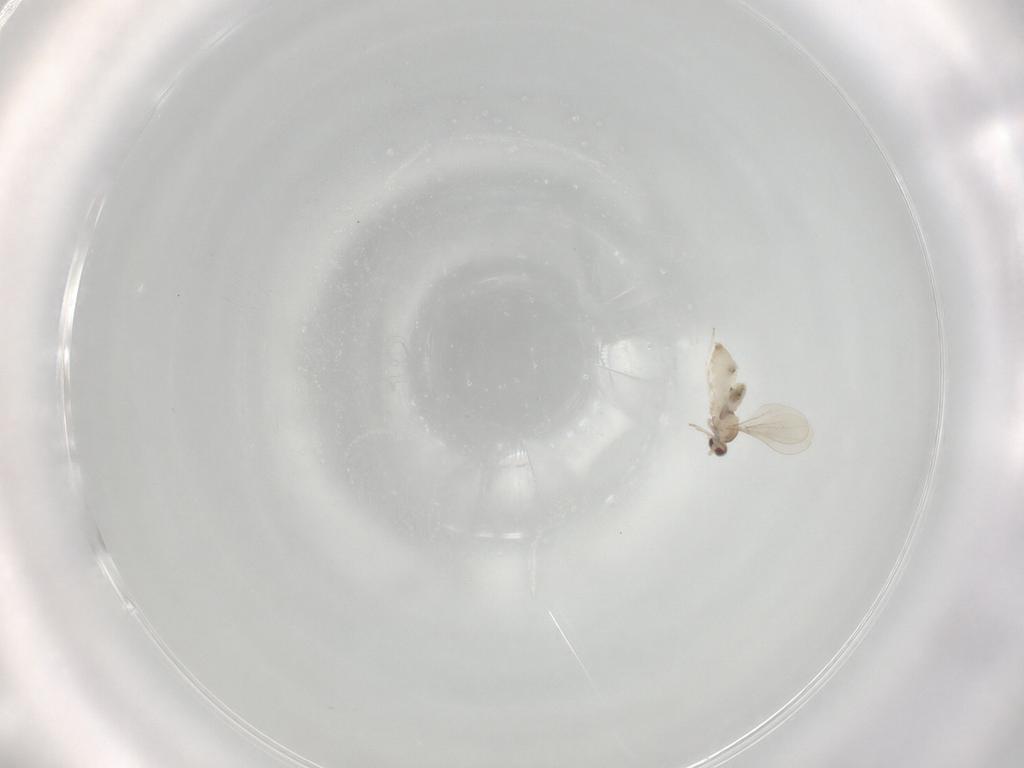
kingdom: Animalia
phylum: Arthropoda
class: Insecta
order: Diptera
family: Cecidomyiidae
